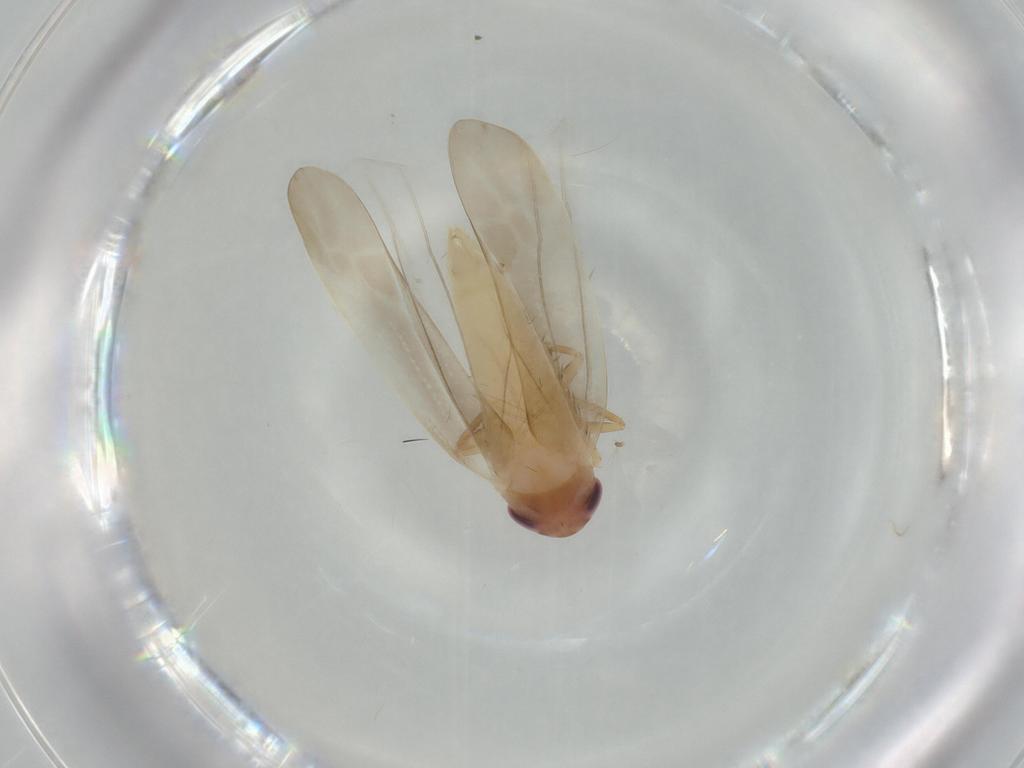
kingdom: Animalia
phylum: Arthropoda
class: Insecta
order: Hemiptera
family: Cicadellidae
